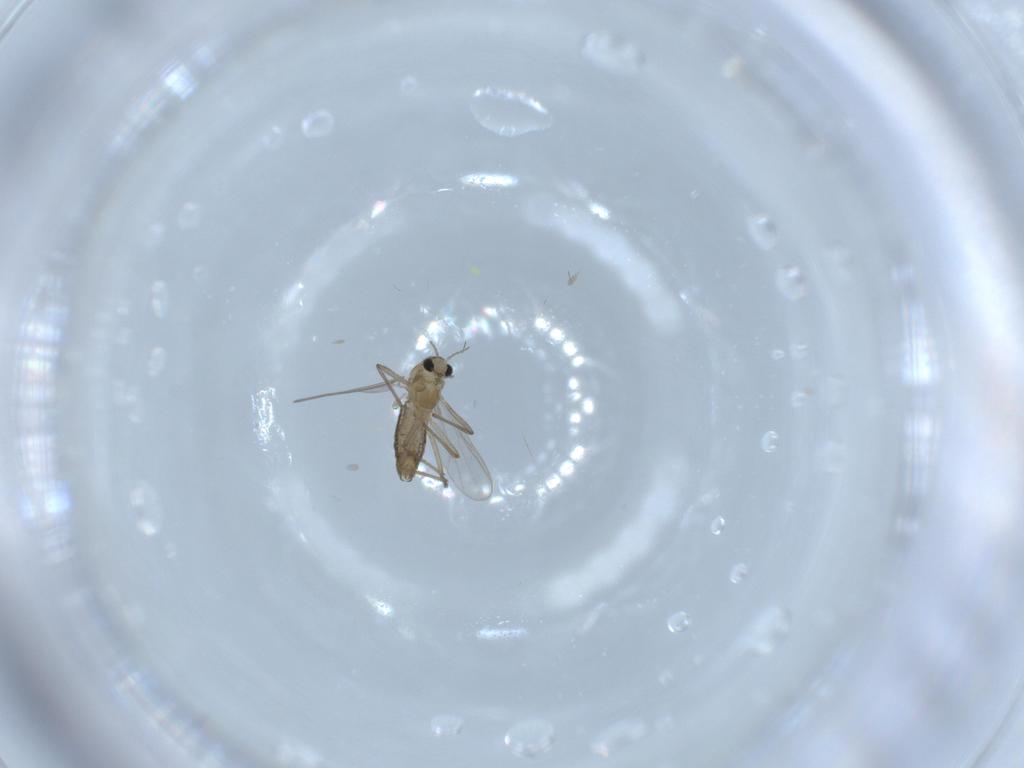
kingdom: Animalia
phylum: Arthropoda
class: Insecta
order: Diptera
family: Chironomidae
